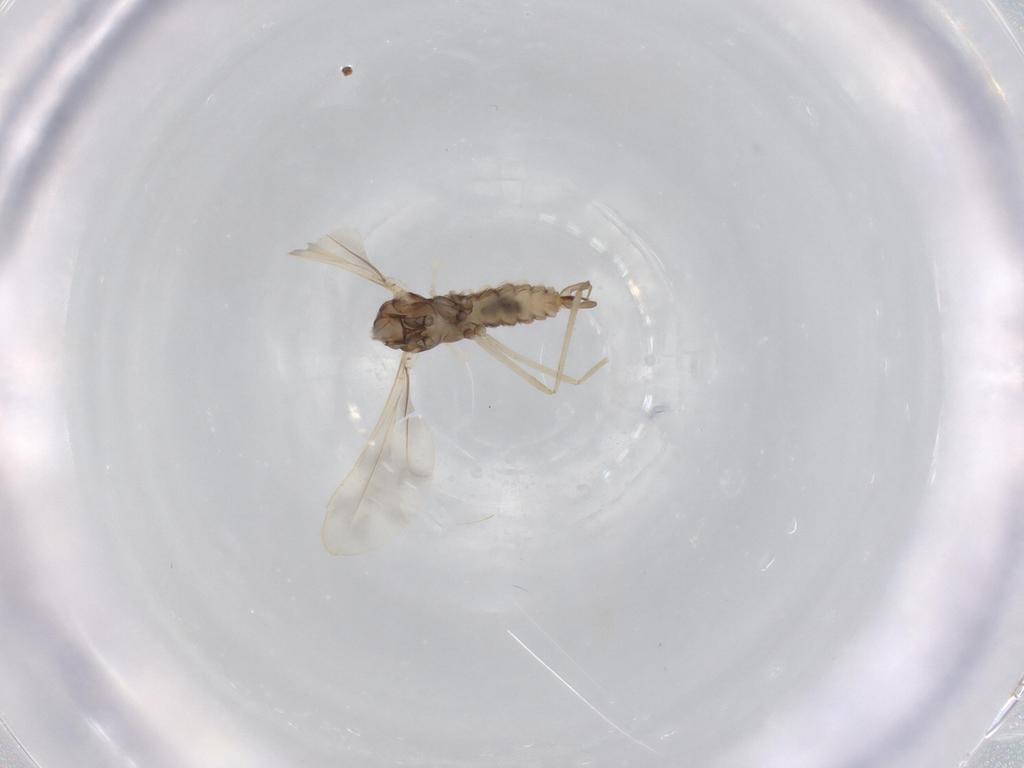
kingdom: Animalia
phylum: Arthropoda
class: Insecta
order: Diptera
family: Cecidomyiidae
